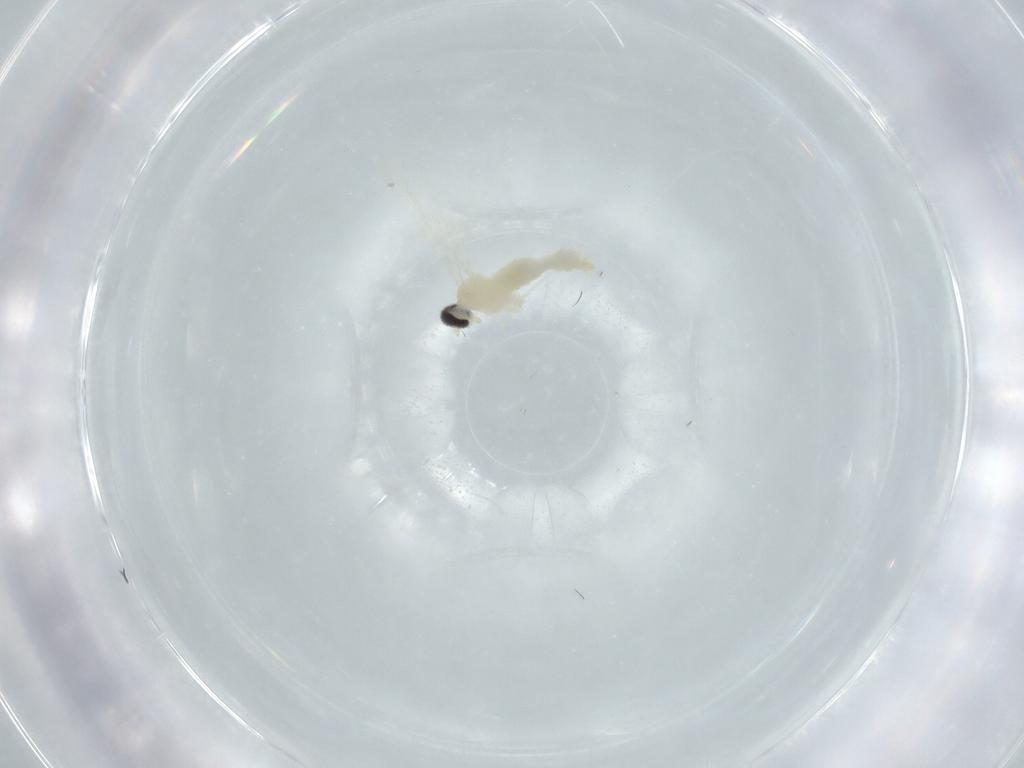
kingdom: Animalia
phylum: Arthropoda
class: Insecta
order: Diptera
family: Cecidomyiidae
